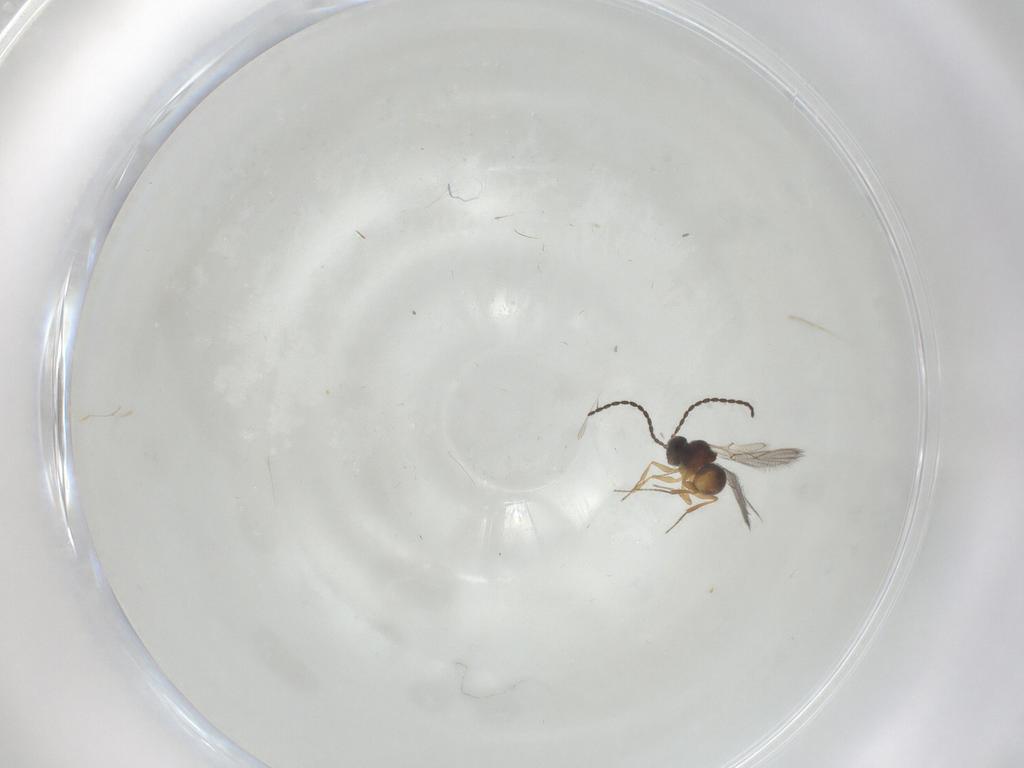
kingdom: Animalia
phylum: Arthropoda
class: Insecta
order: Hymenoptera
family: Figitidae
